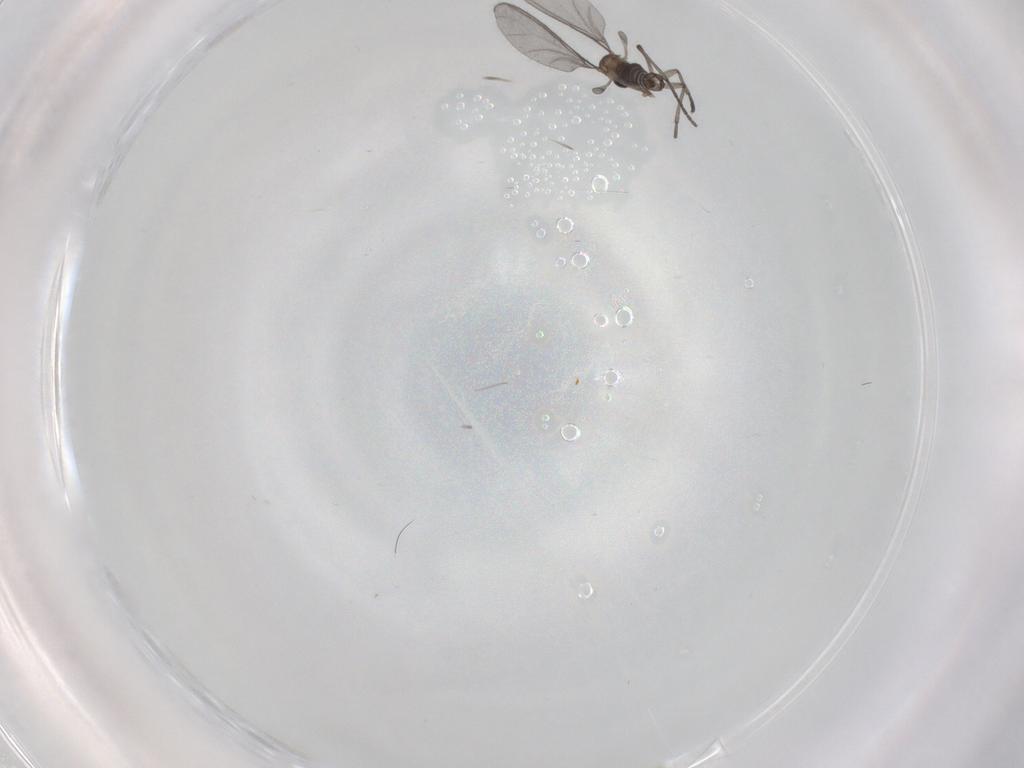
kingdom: Animalia
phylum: Arthropoda
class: Insecta
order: Diptera
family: Sciaridae
